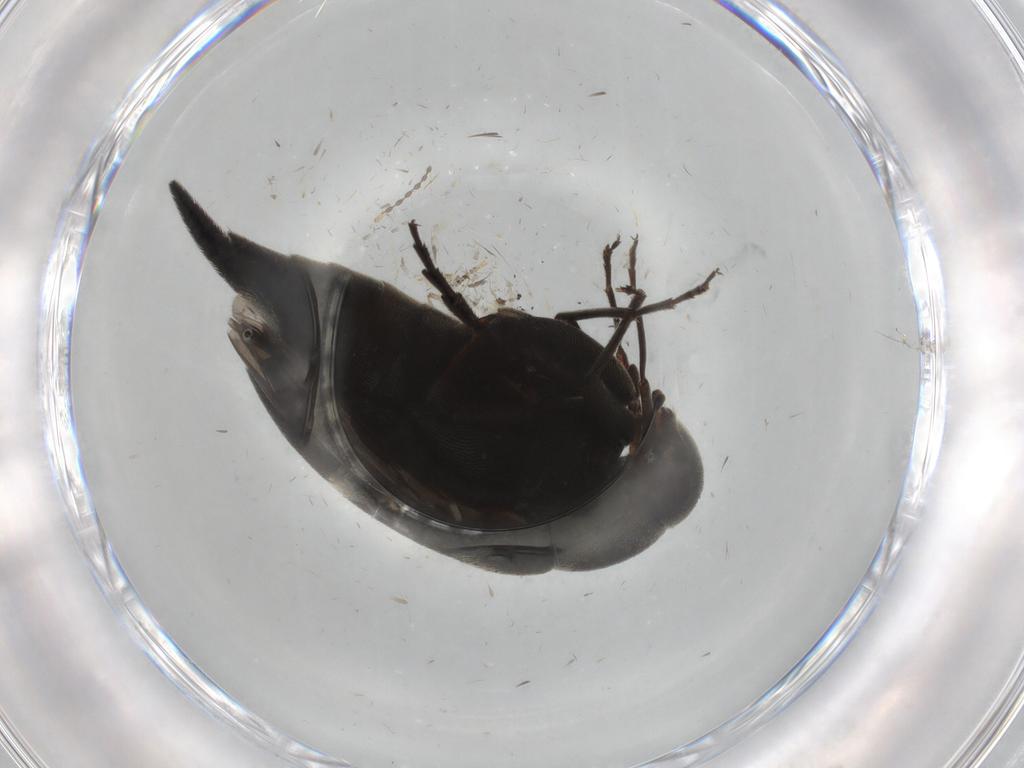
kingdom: Animalia
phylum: Arthropoda
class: Insecta
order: Coleoptera
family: Mordellidae
